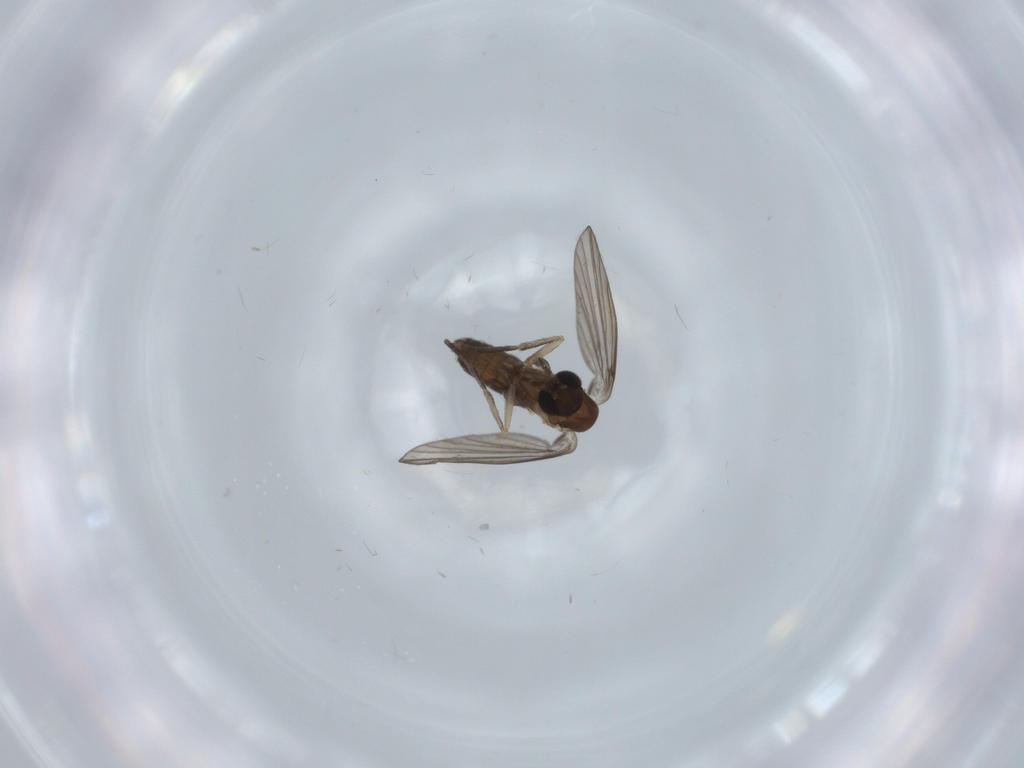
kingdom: Animalia
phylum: Arthropoda
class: Insecta
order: Diptera
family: Psychodidae
